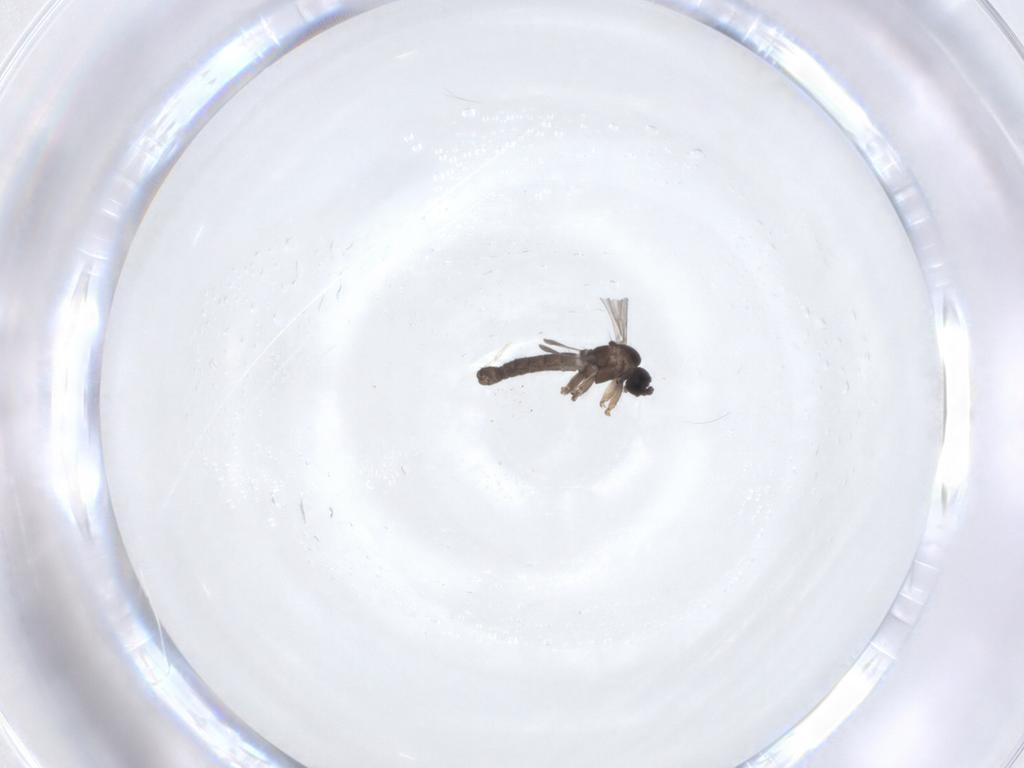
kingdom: Animalia
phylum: Arthropoda
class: Insecta
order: Diptera
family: Sciaridae
